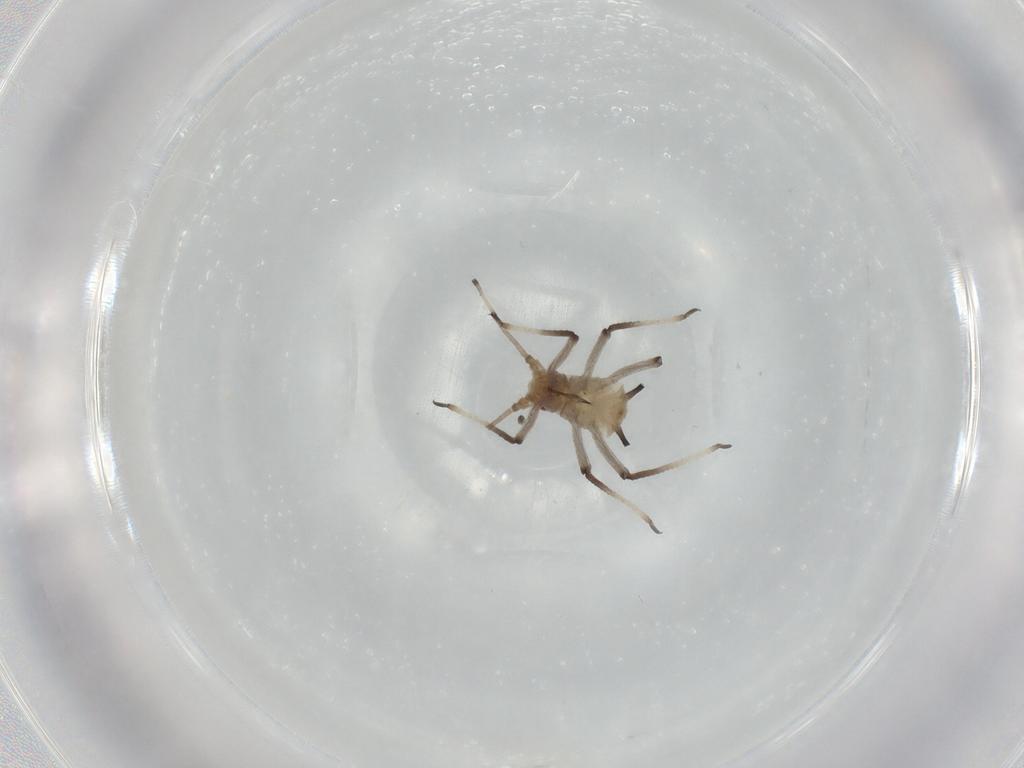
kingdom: Animalia
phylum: Arthropoda
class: Insecta
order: Hemiptera
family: Aphididae
